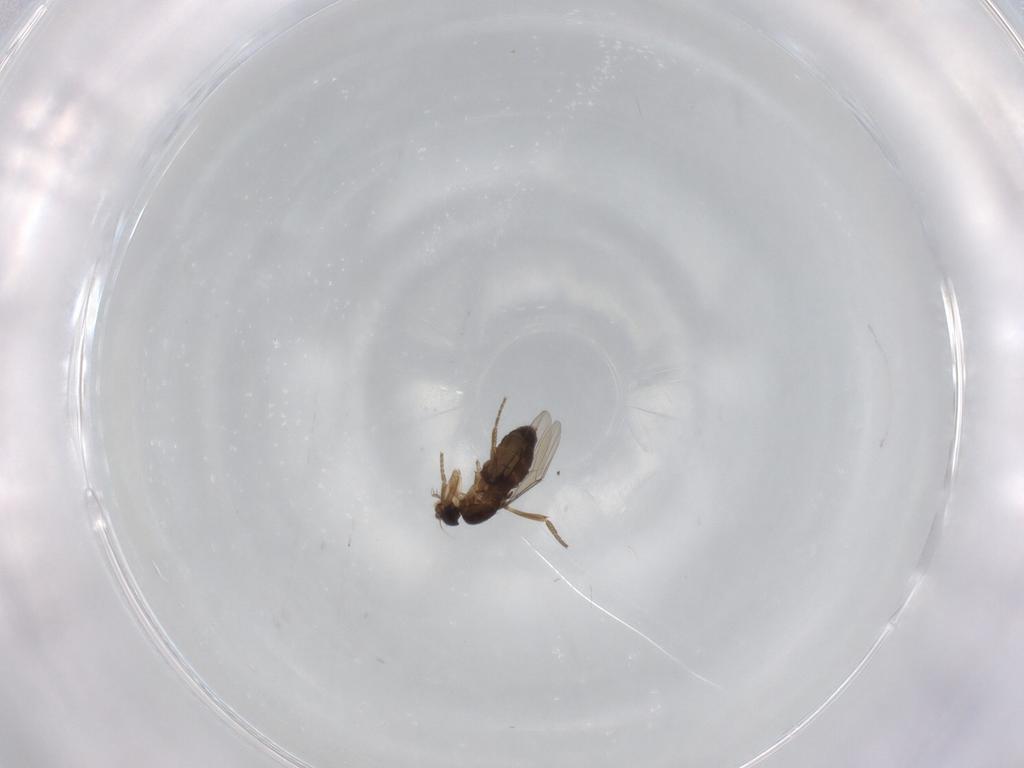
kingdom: Animalia
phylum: Arthropoda
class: Insecta
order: Diptera
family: Phoridae
